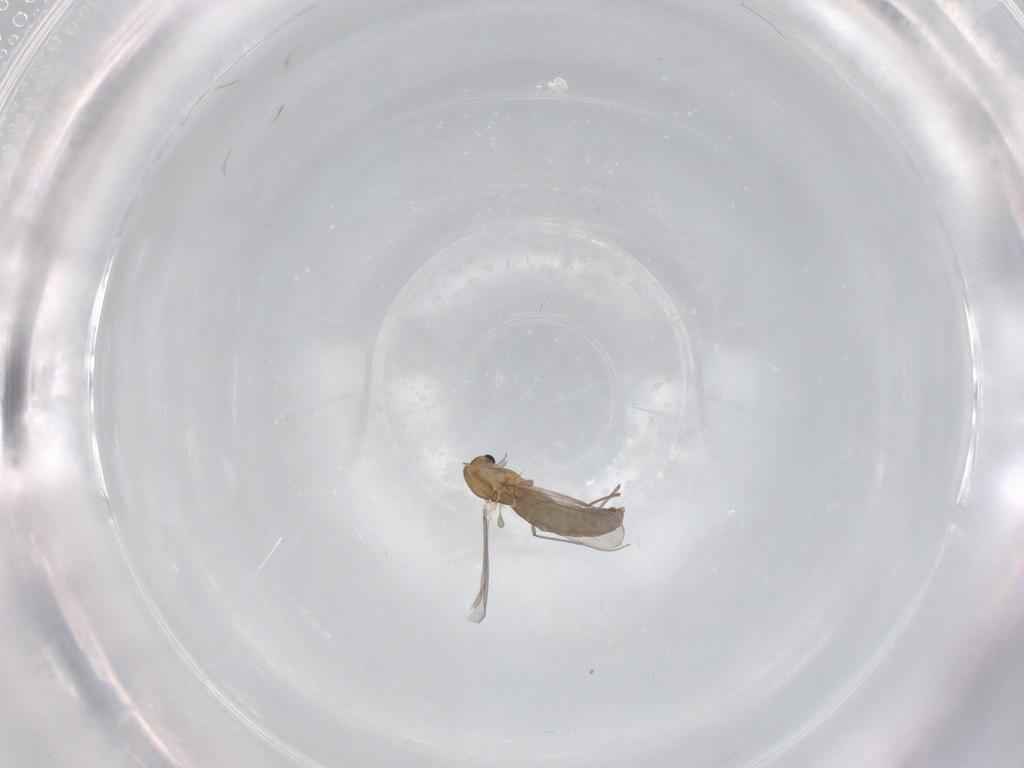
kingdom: Animalia
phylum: Arthropoda
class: Insecta
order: Diptera
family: Chironomidae
